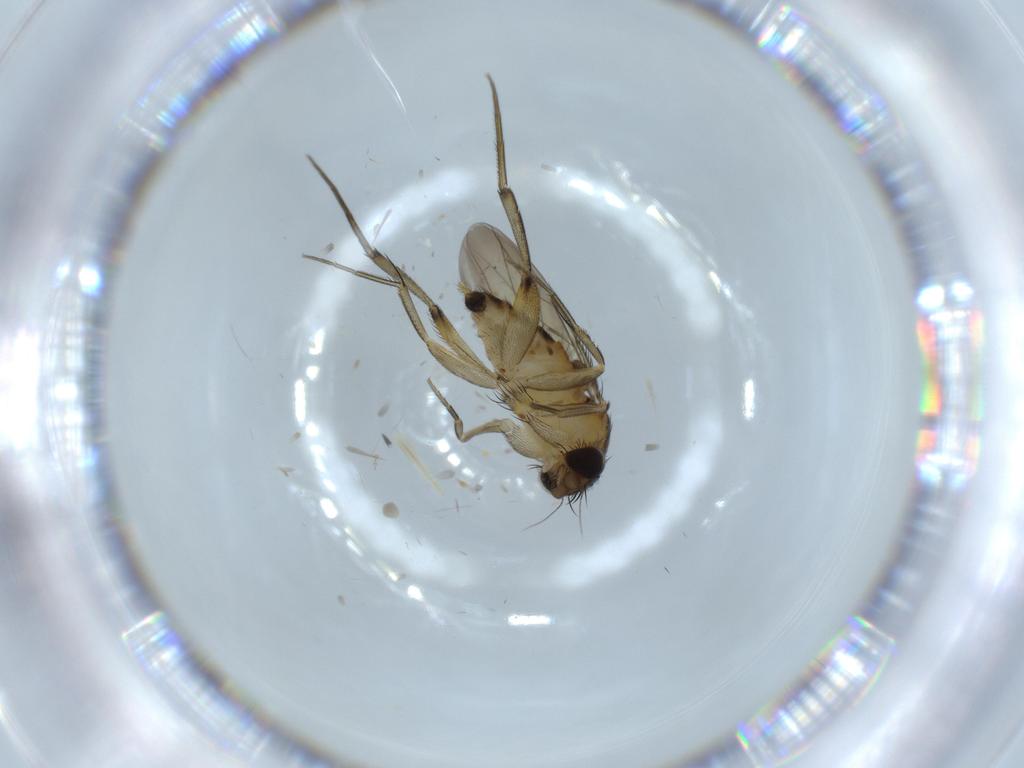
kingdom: Animalia
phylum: Arthropoda
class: Insecta
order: Diptera
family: Phoridae
